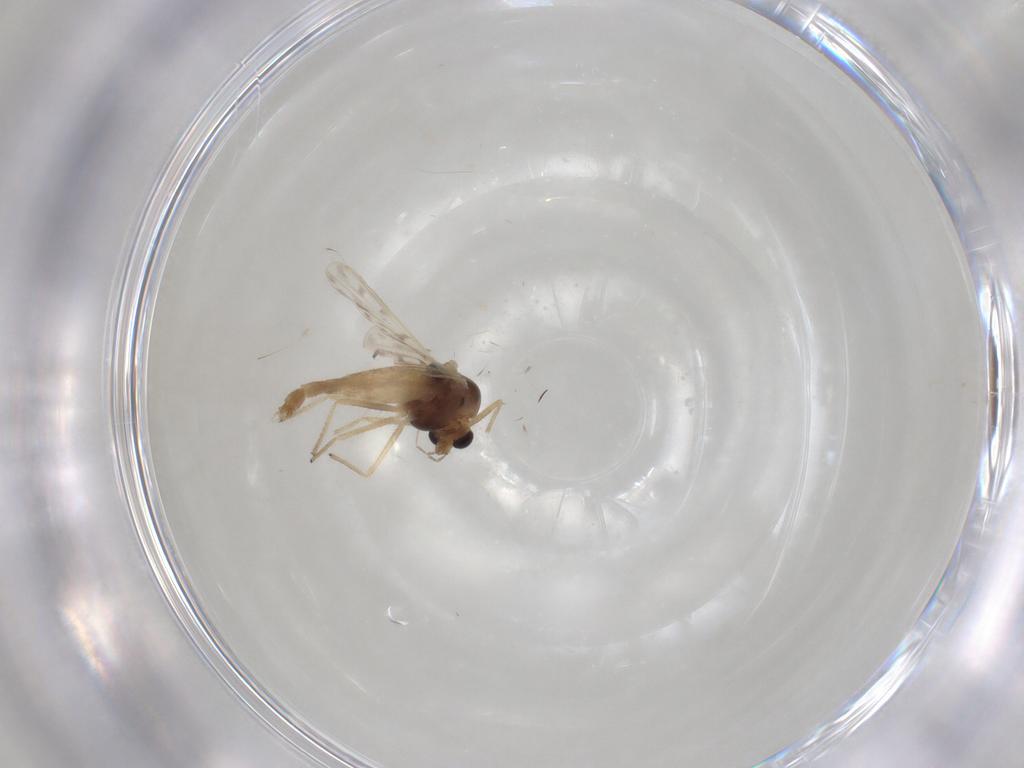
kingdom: Animalia
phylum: Arthropoda
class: Insecta
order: Diptera
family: Chironomidae
